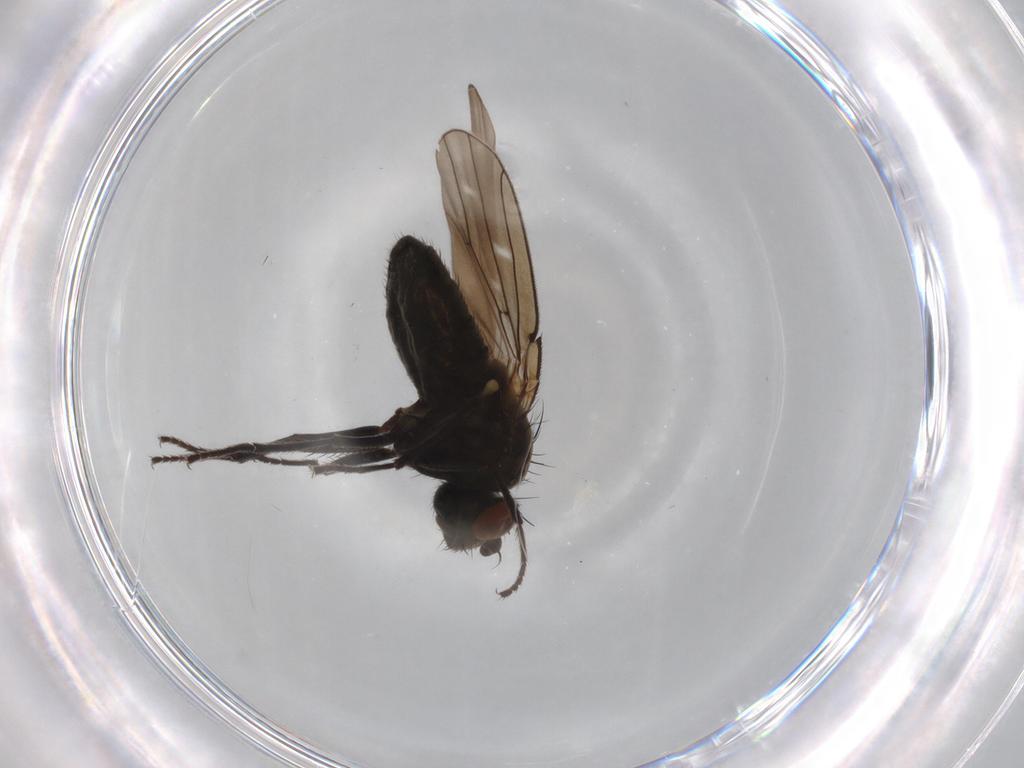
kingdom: Animalia
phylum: Arthropoda
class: Insecta
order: Diptera
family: Ephydridae
